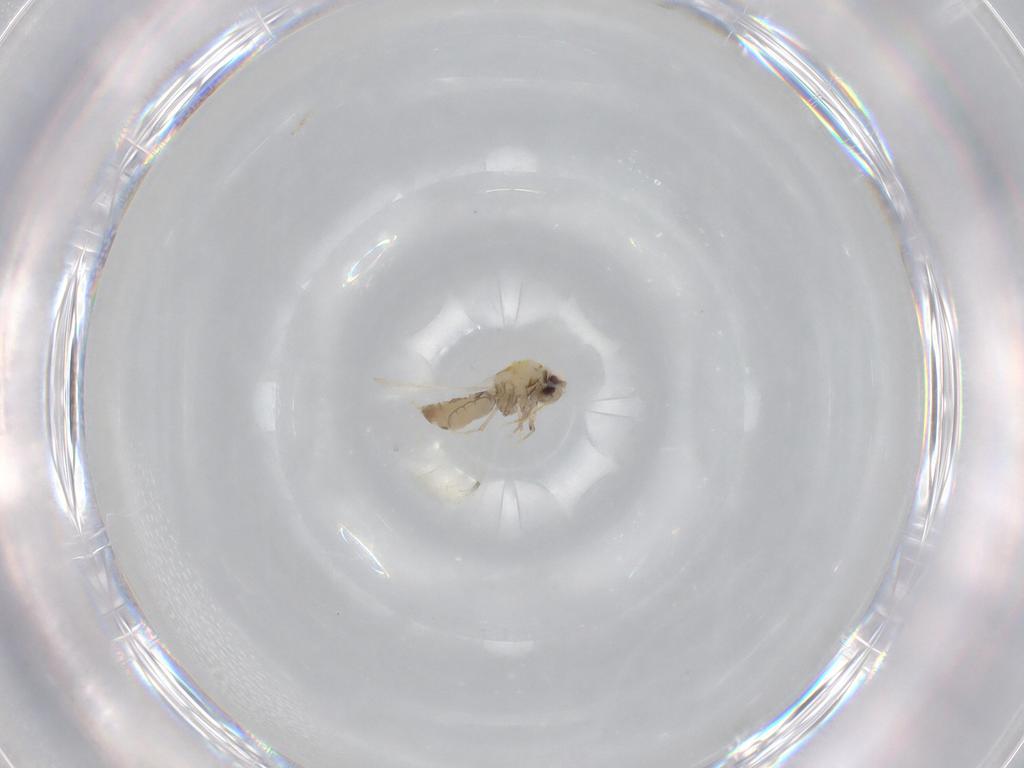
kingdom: Animalia
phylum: Arthropoda
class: Insecta
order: Hemiptera
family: Aleyrodidae
